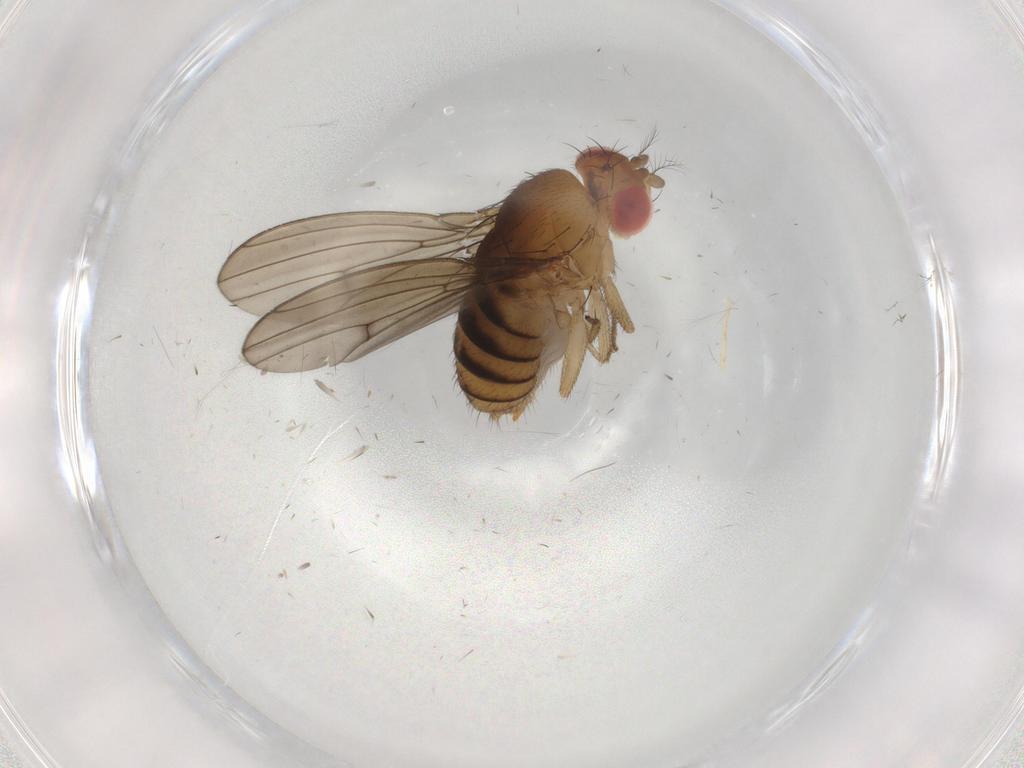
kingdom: Animalia
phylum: Arthropoda
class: Insecta
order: Diptera
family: Drosophilidae
